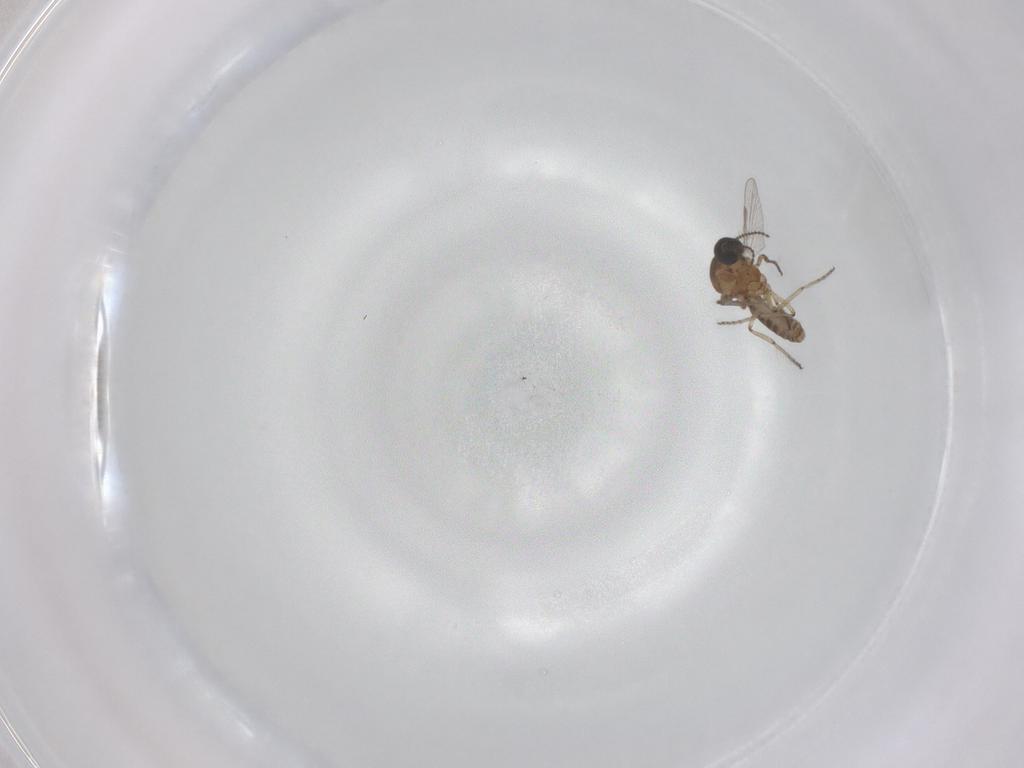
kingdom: Animalia
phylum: Arthropoda
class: Insecta
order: Diptera
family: Ceratopogonidae
